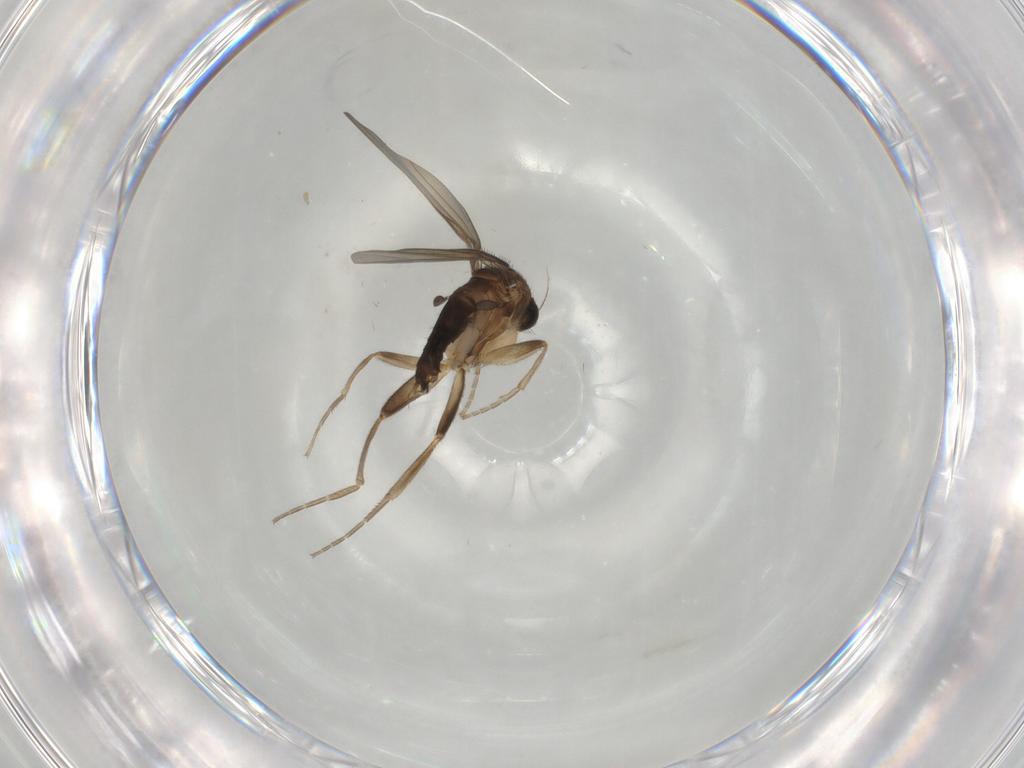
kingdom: Animalia
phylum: Arthropoda
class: Insecta
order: Diptera
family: Phoridae
